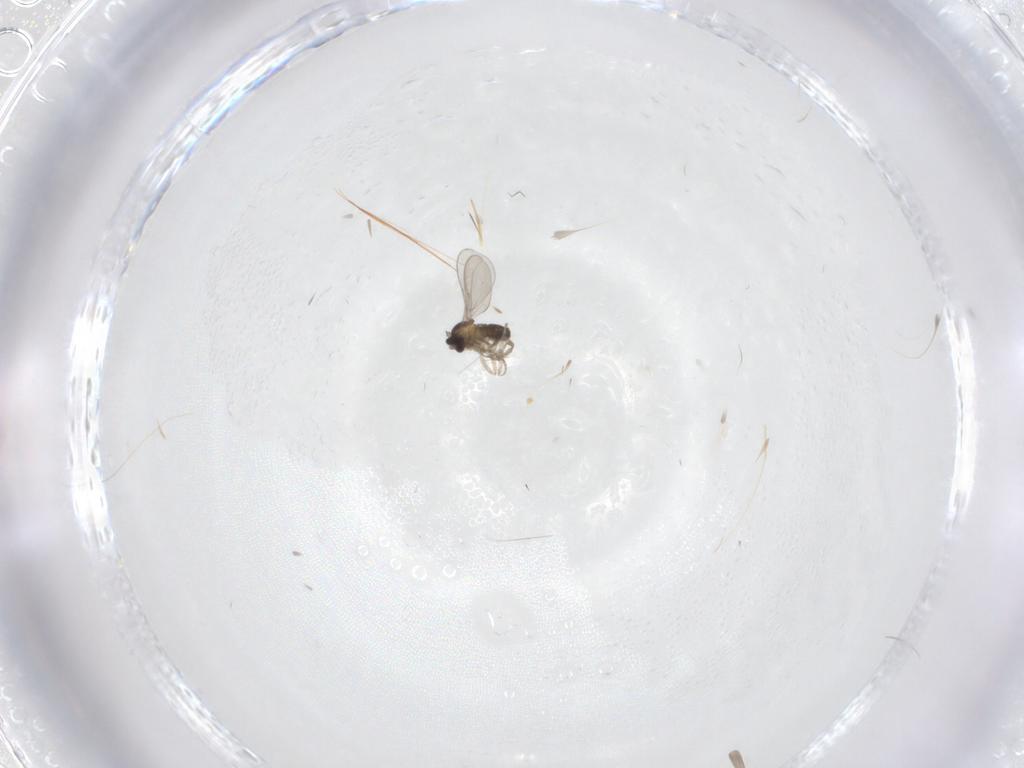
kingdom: Animalia
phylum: Arthropoda
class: Insecta
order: Diptera
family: Cecidomyiidae
